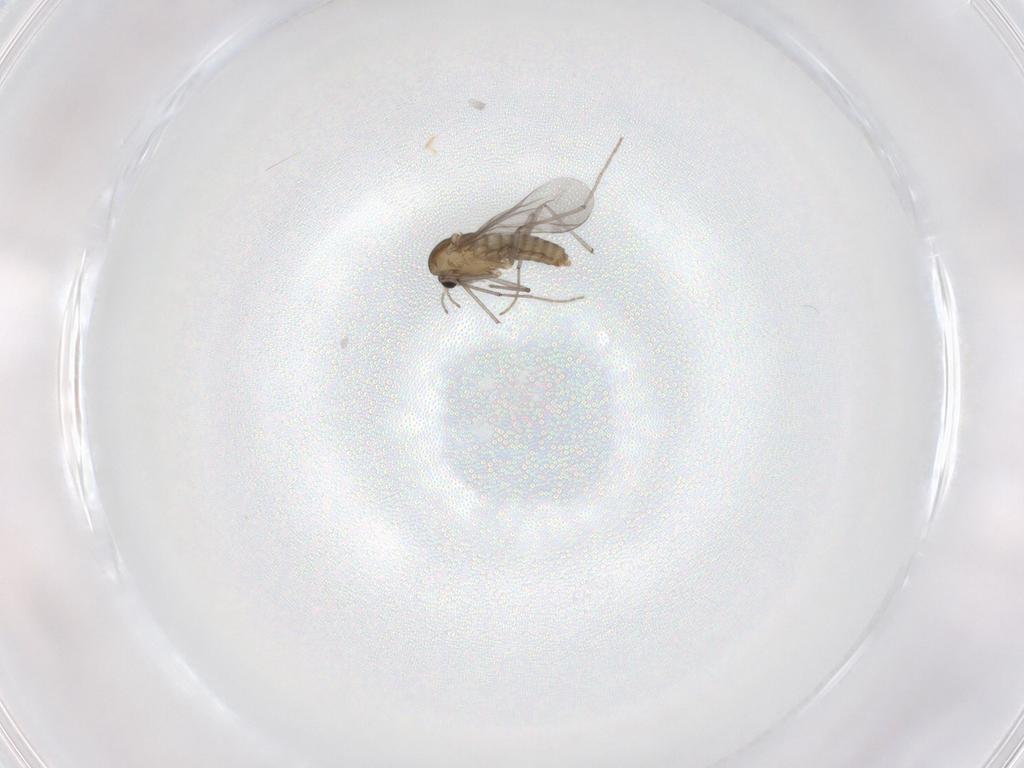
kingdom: Animalia
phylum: Arthropoda
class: Insecta
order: Diptera
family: Chironomidae
